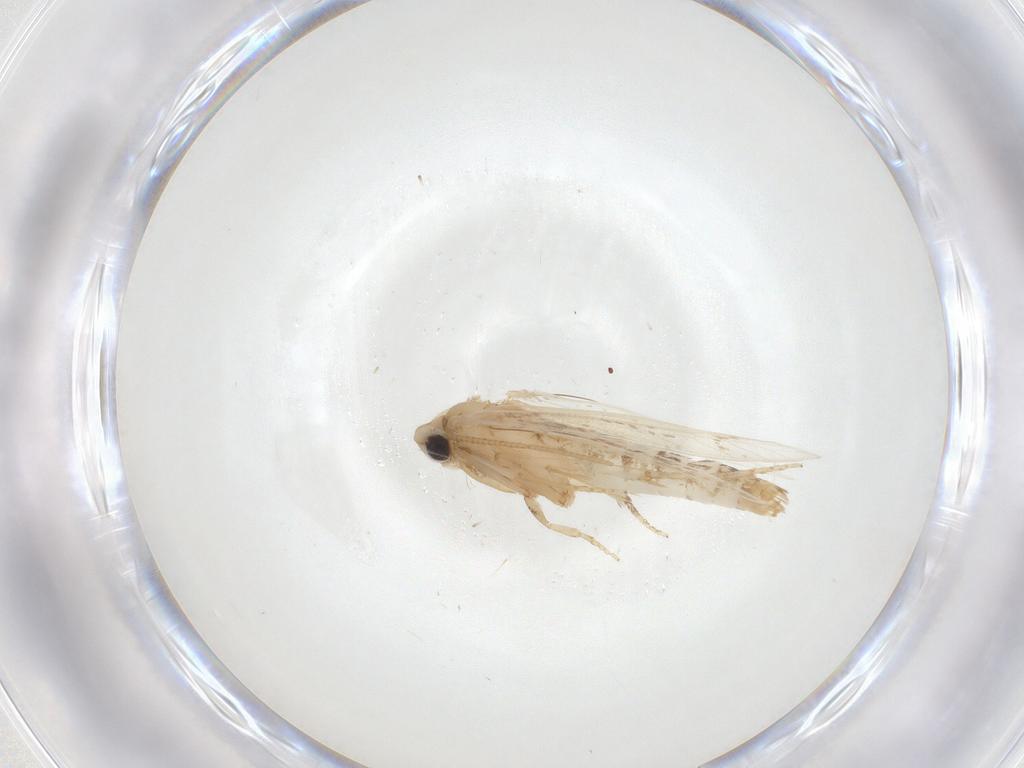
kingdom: Animalia
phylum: Arthropoda
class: Insecta
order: Lepidoptera
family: Tineidae
